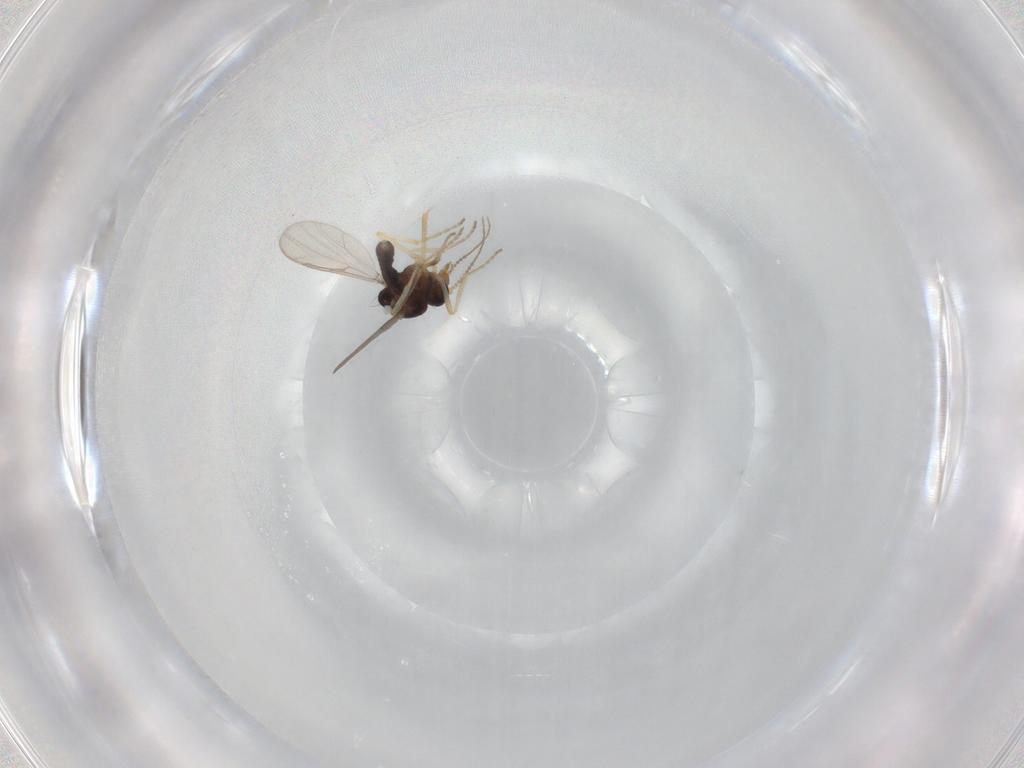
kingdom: Animalia
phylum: Arthropoda
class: Insecta
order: Diptera
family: Ceratopogonidae
